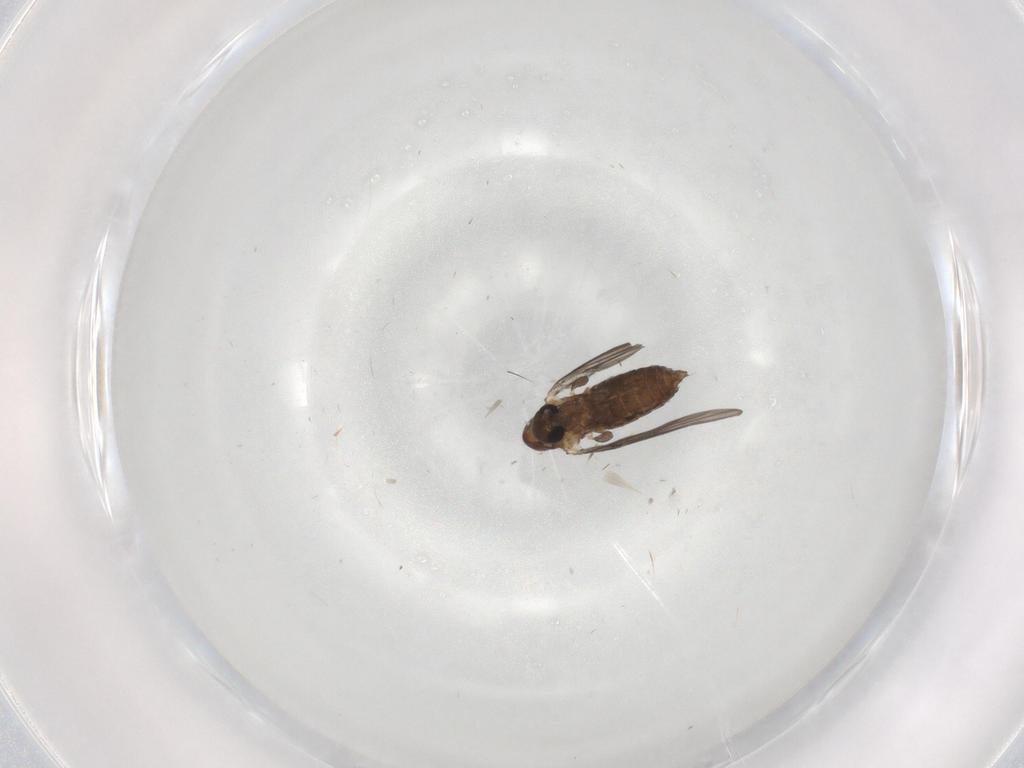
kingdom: Animalia
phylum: Arthropoda
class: Insecta
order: Diptera
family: Psychodidae
